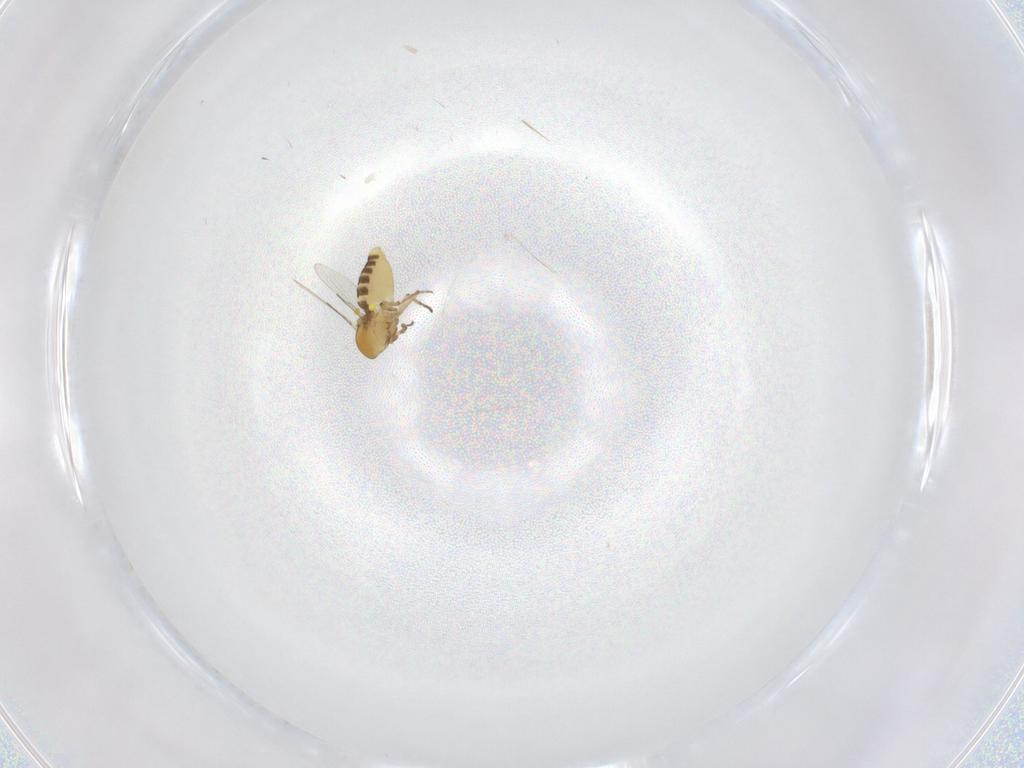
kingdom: Animalia
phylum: Arthropoda
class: Insecta
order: Diptera
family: Ceratopogonidae
